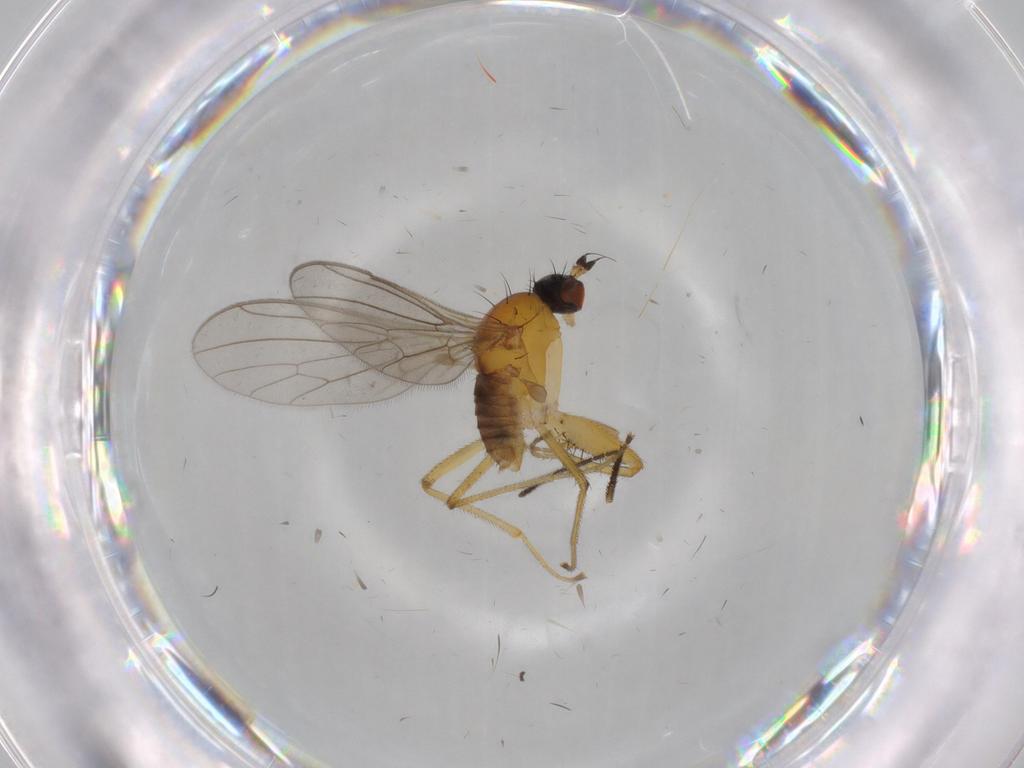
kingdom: Animalia
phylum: Arthropoda
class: Insecta
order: Diptera
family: Empididae
